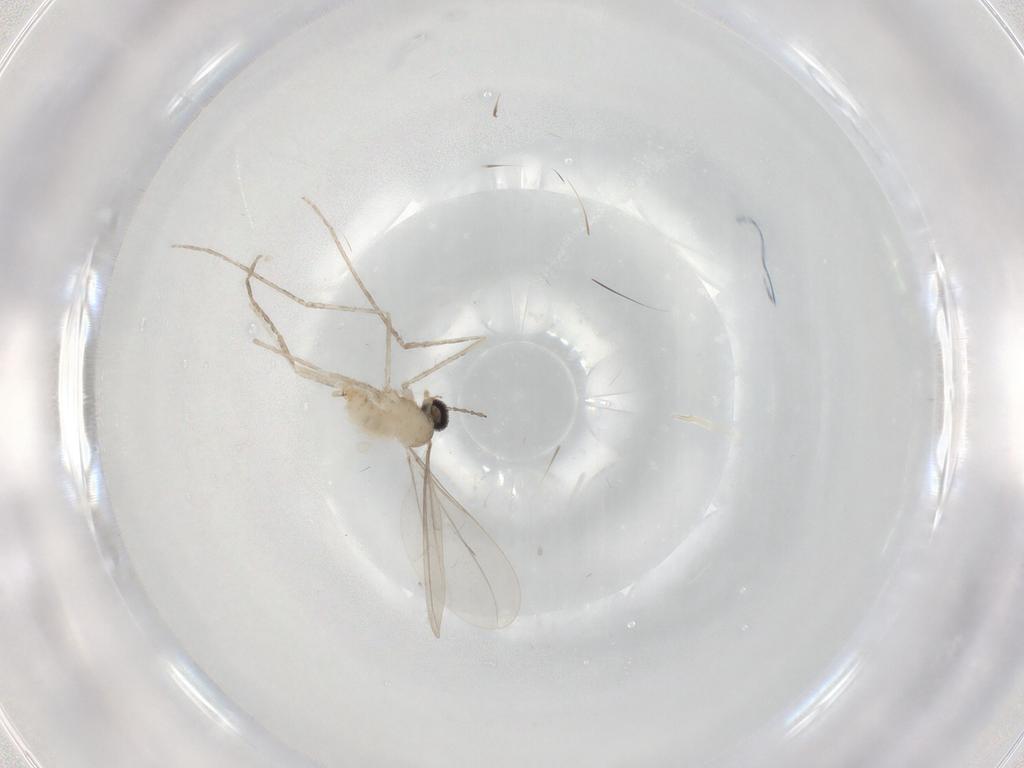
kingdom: Animalia
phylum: Arthropoda
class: Insecta
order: Diptera
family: Cecidomyiidae
